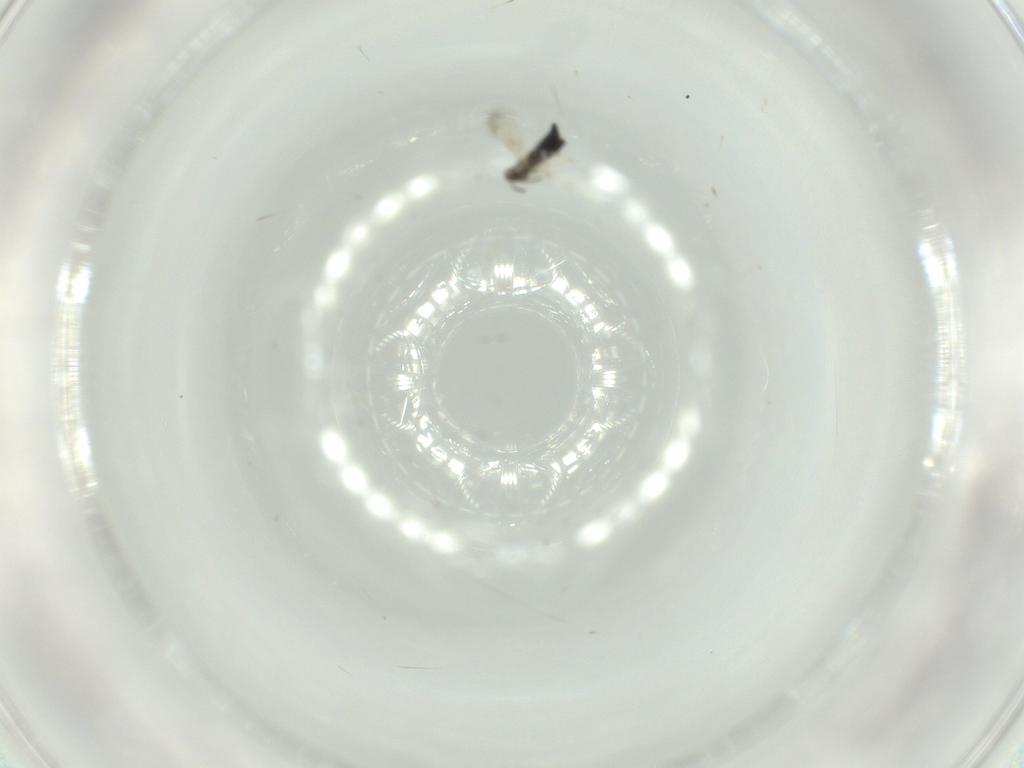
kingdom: Animalia
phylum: Arthropoda
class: Insecta
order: Hymenoptera
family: Signiphoridae
